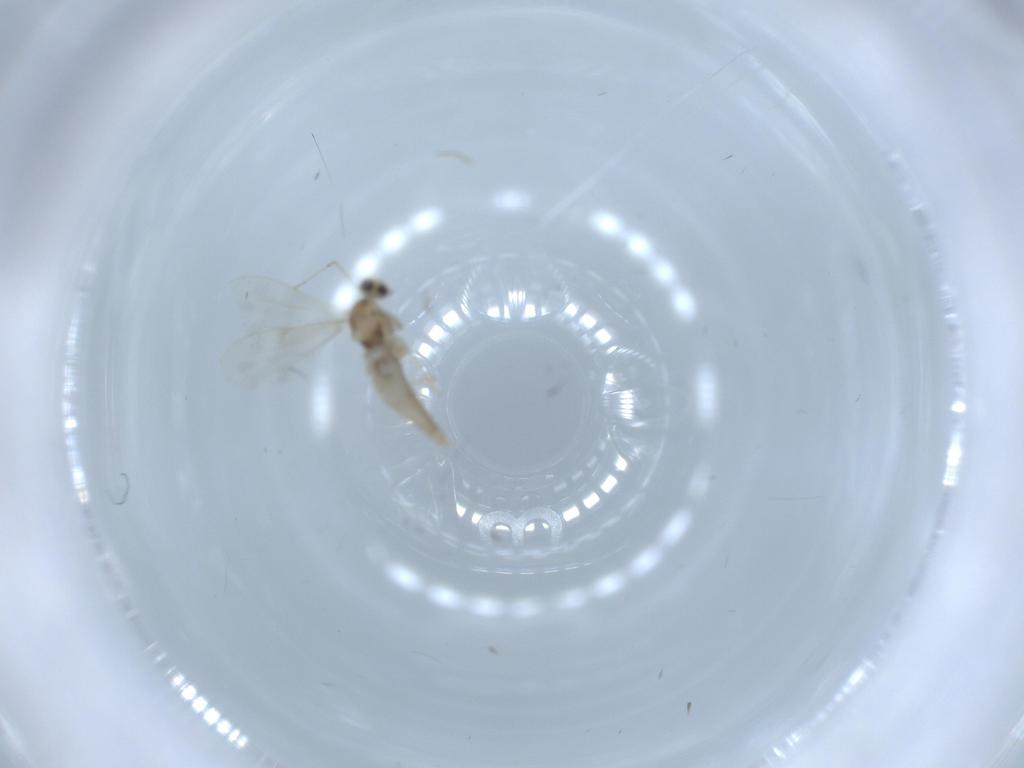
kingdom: Animalia
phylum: Arthropoda
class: Insecta
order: Diptera
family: Cecidomyiidae
